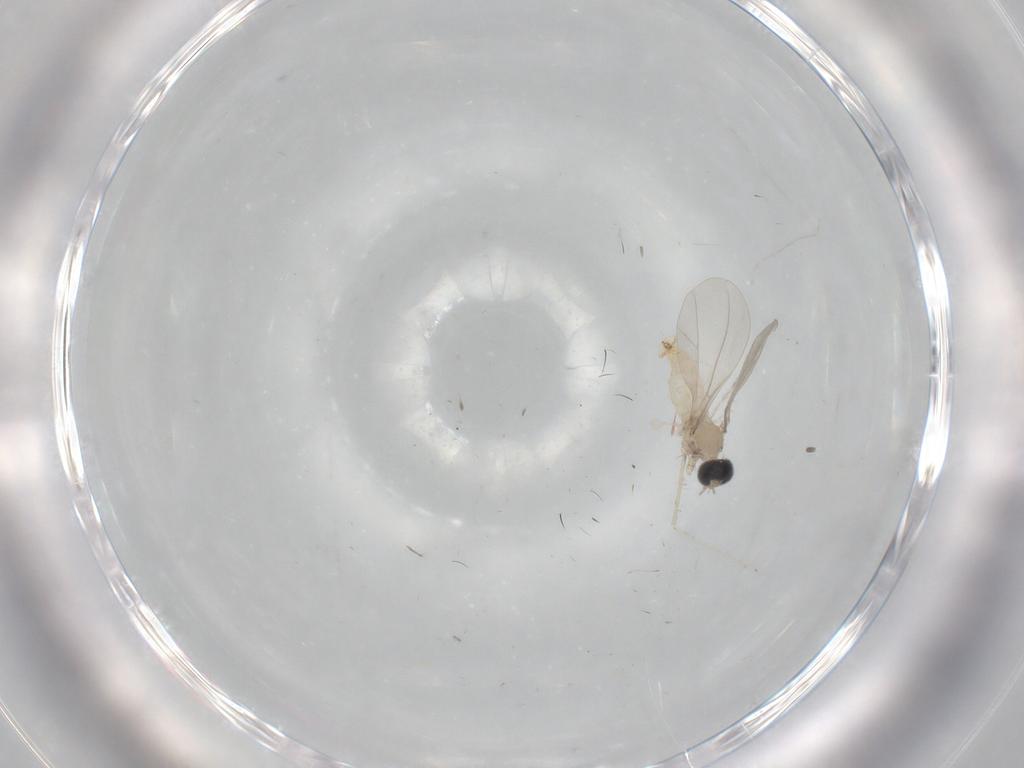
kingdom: Animalia
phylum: Arthropoda
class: Insecta
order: Diptera
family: Cecidomyiidae
